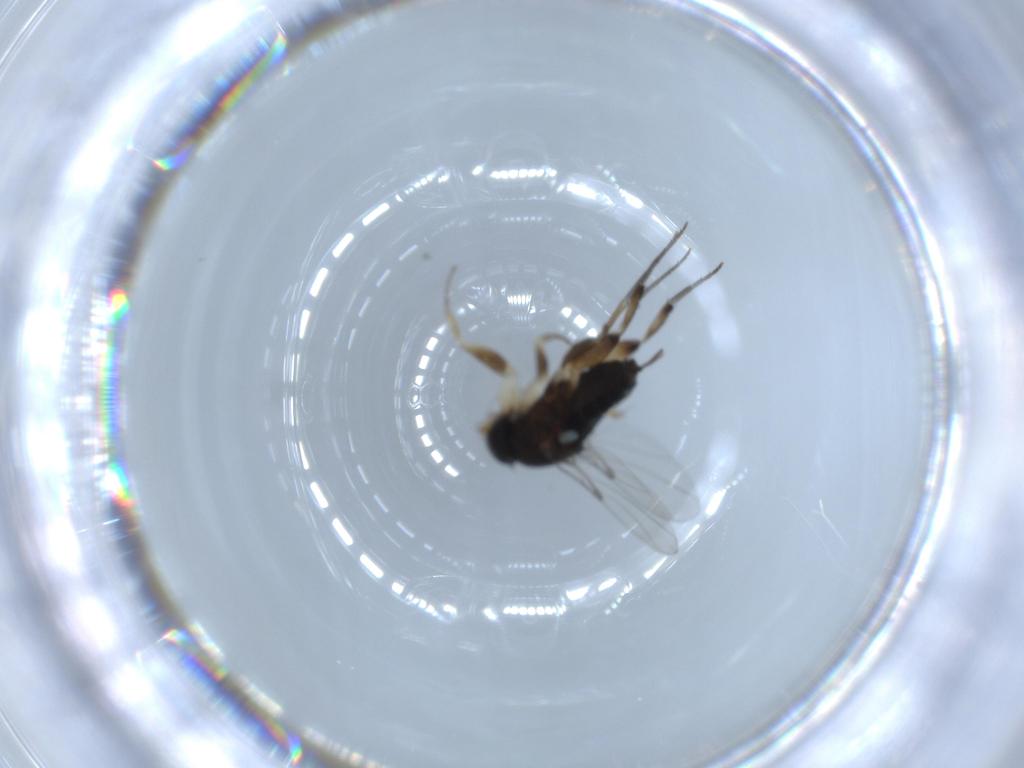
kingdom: Animalia
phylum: Arthropoda
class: Insecta
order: Diptera
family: Phoridae
